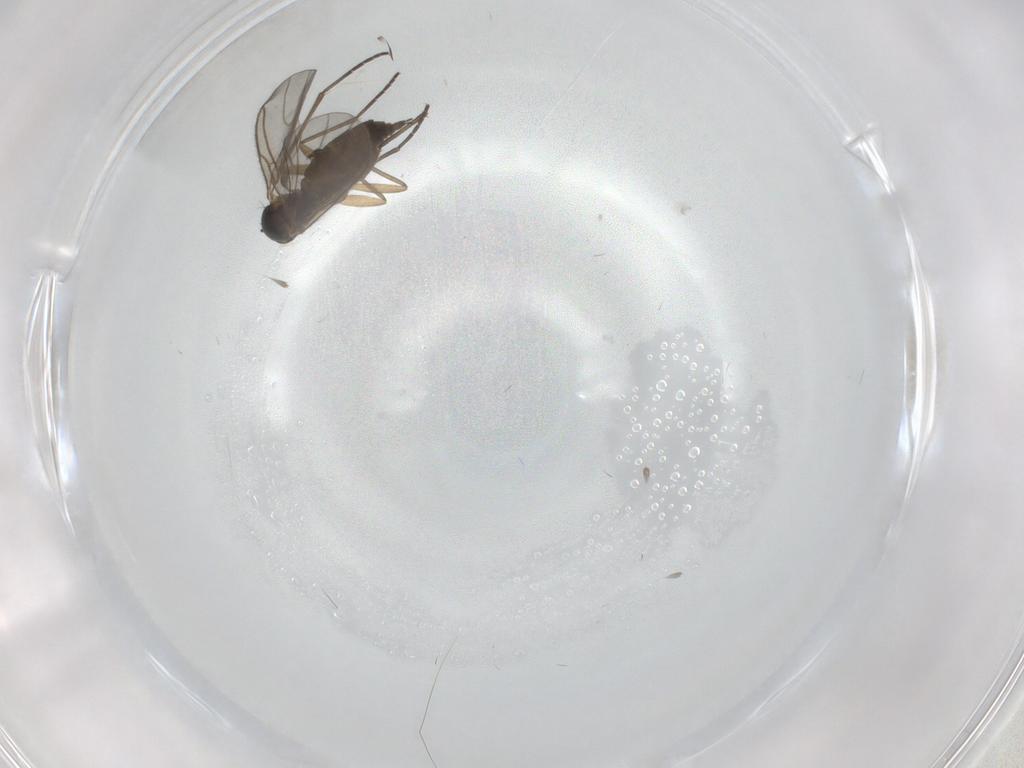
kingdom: Animalia
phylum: Arthropoda
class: Insecta
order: Diptera
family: Sciaridae
